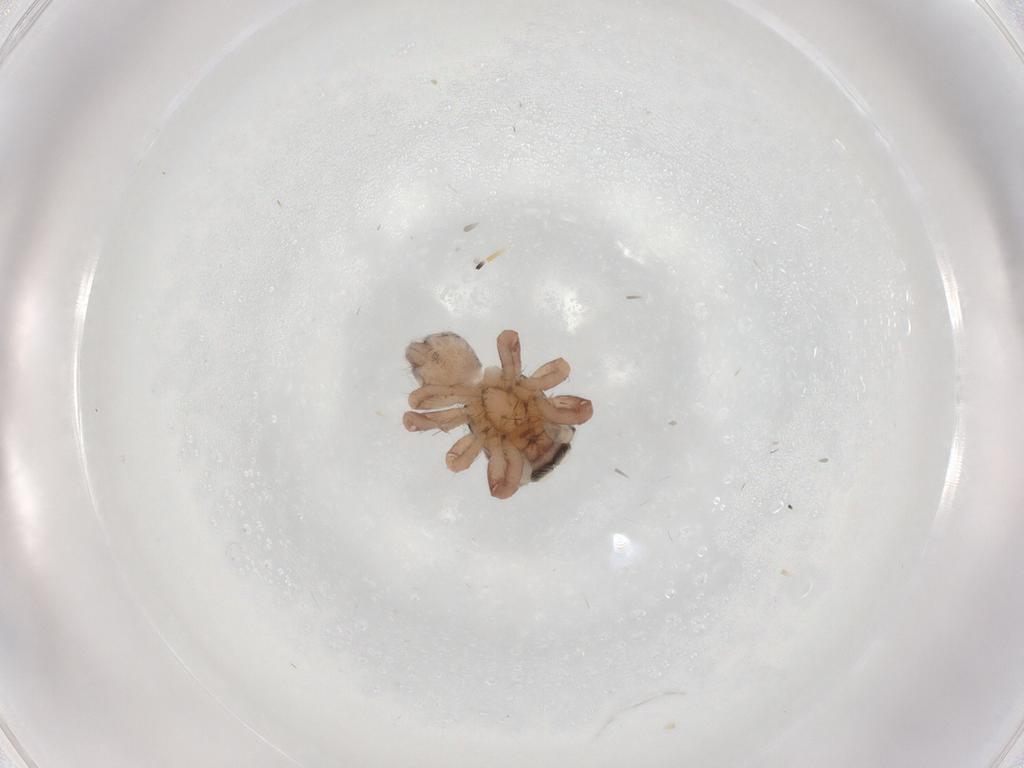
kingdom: Animalia
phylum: Arthropoda
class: Arachnida
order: Araneae
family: Salticidae
